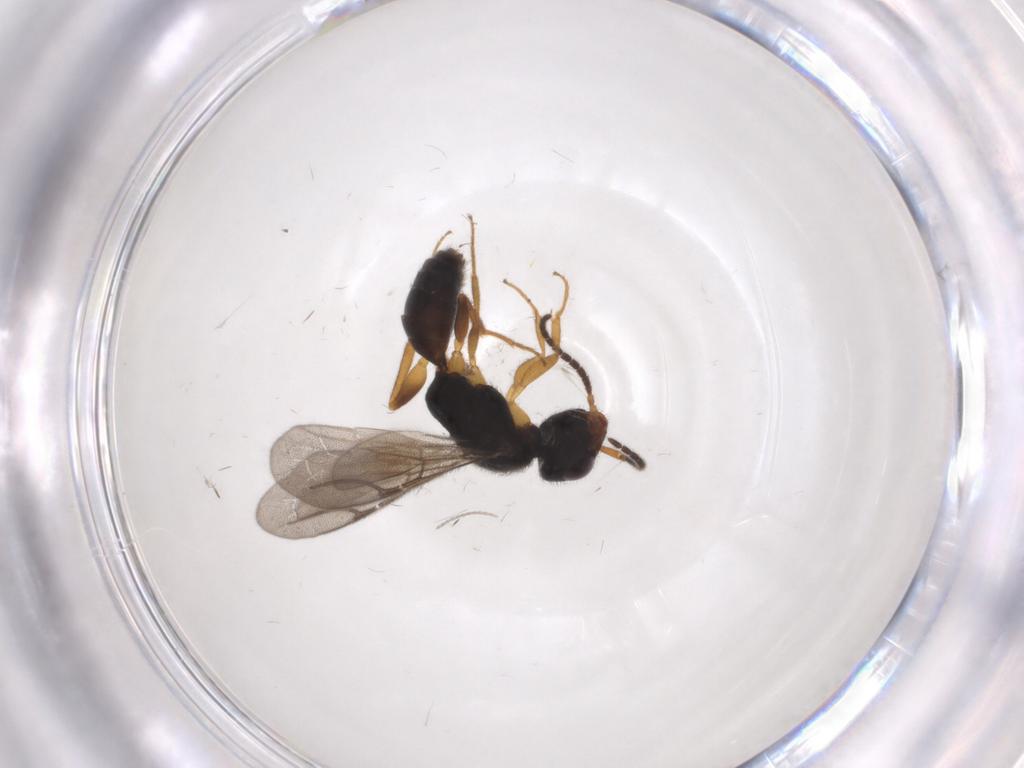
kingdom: Animalia
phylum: Arthropoda
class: Insecta
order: Hymenoptera
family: Bethylidae
